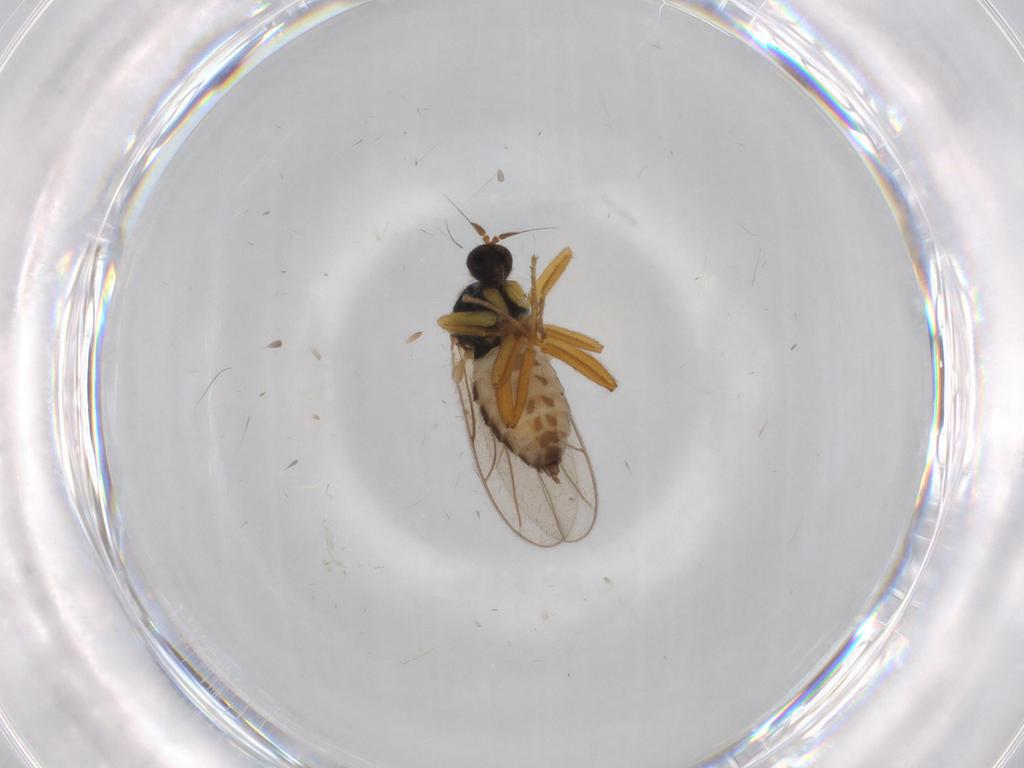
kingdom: Animalia
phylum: Arthropoda
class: Insecta
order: Diptera
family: Hybotidae
